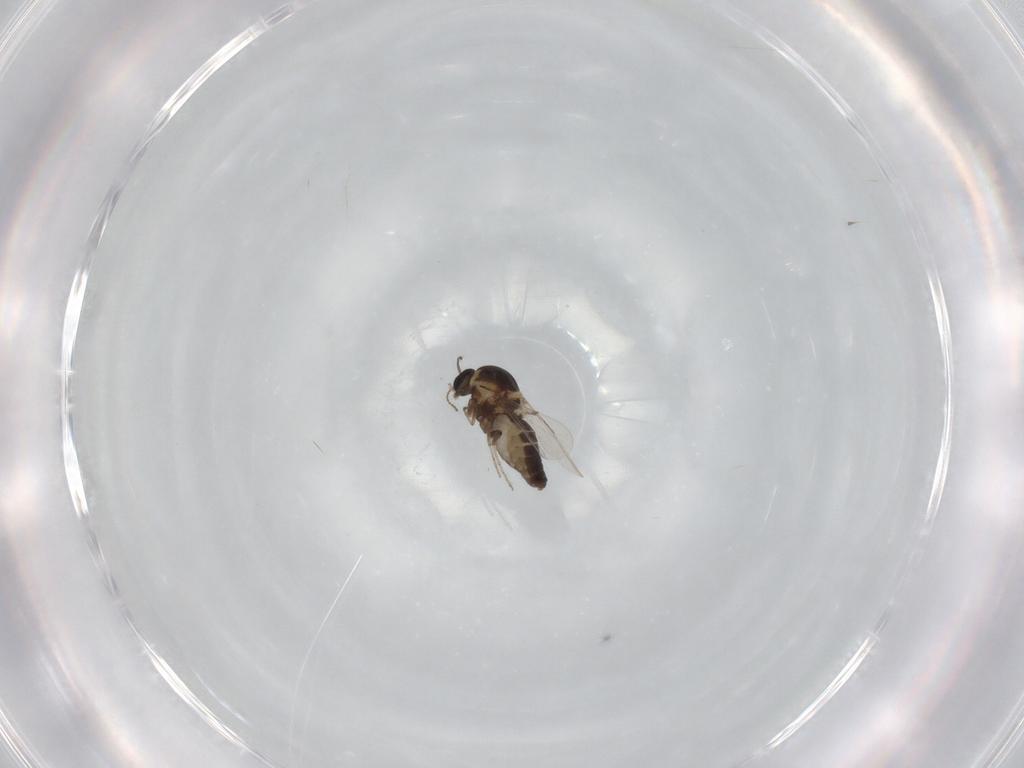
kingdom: Animalia
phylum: Arthropoda
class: Insecta
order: Diptera
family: Ceratopogonidae
